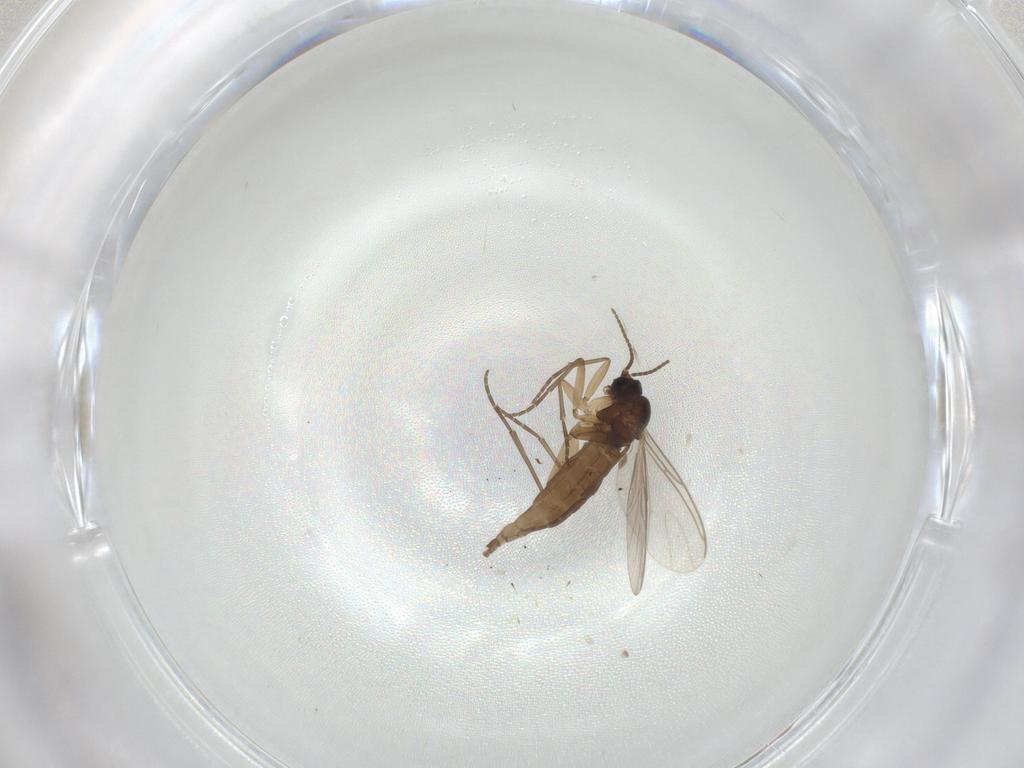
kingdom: Animalia
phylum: Arthropoda
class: Insecta
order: Diptera
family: Sciaridae
